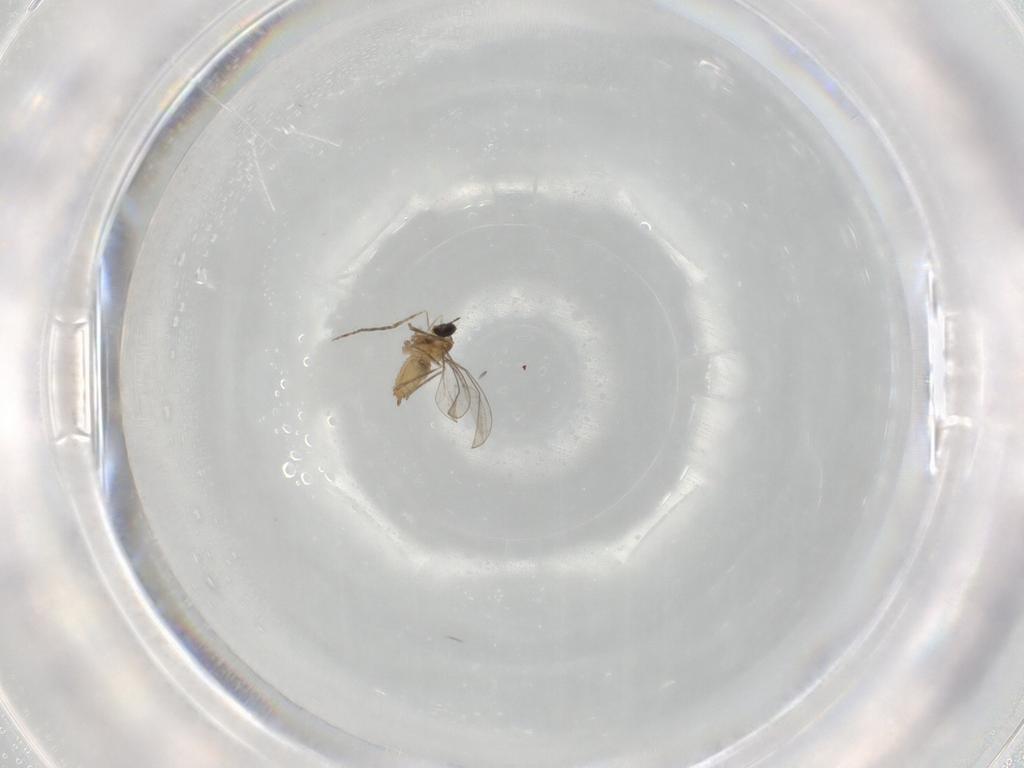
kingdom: Animalia
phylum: Arthropoda
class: Insecta
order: Diptera
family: Cecidomyiidae
